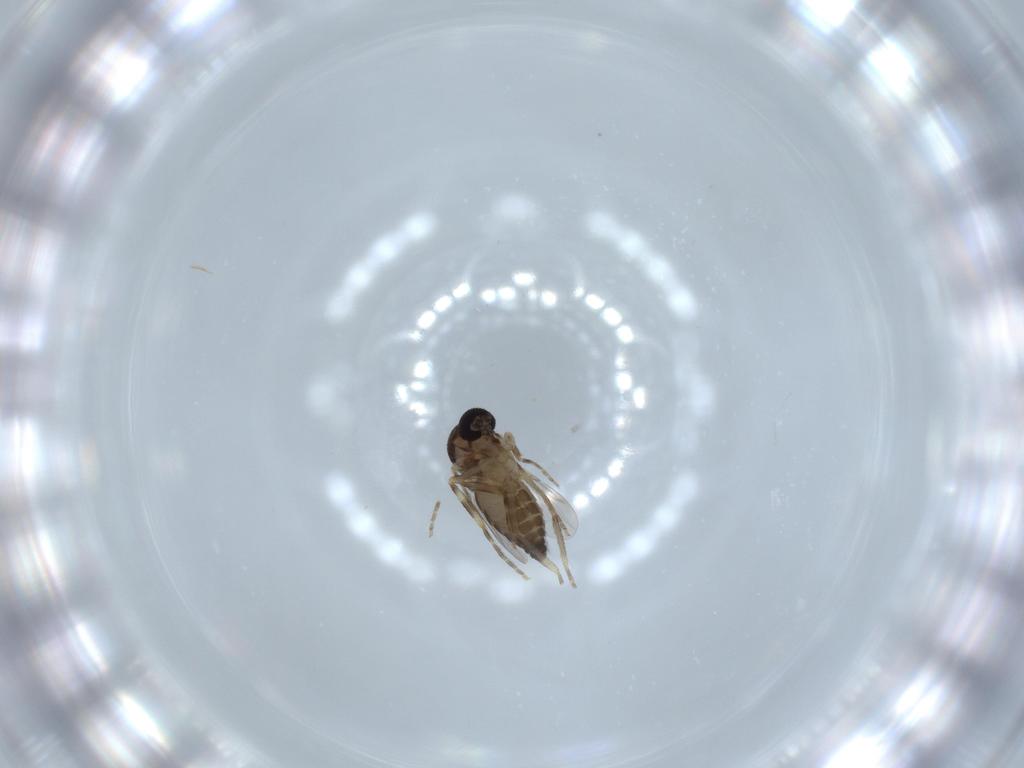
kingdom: Animalia
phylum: Arthropoda
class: Insecta
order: Diptera
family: Ceratopogonidae
